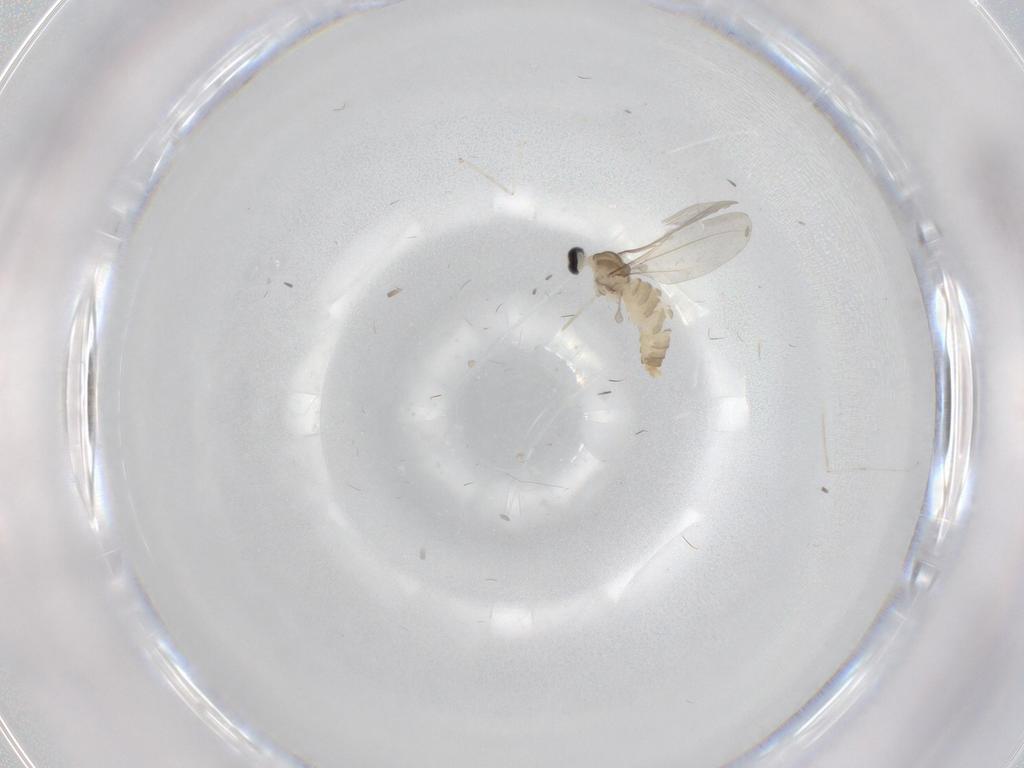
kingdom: Animalia
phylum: Arthropoda
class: Insecta
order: Diptera
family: Cecidomyiidae
